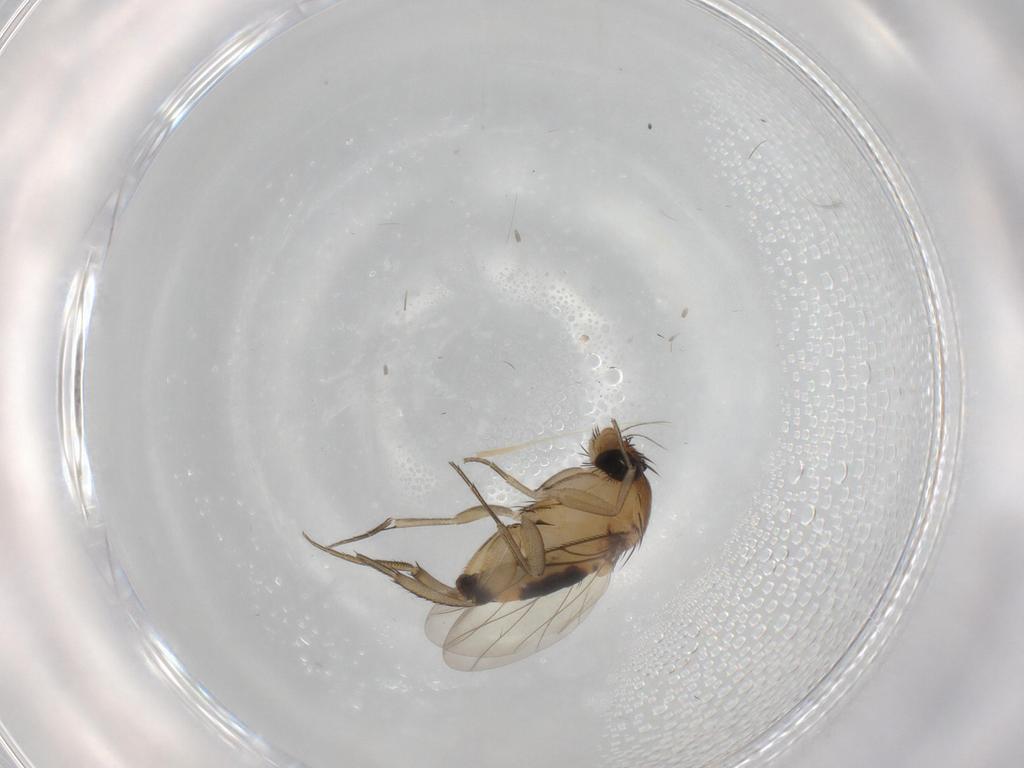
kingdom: Animalia
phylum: Arthropoda
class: Insecta
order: Diptera
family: Phoridae
